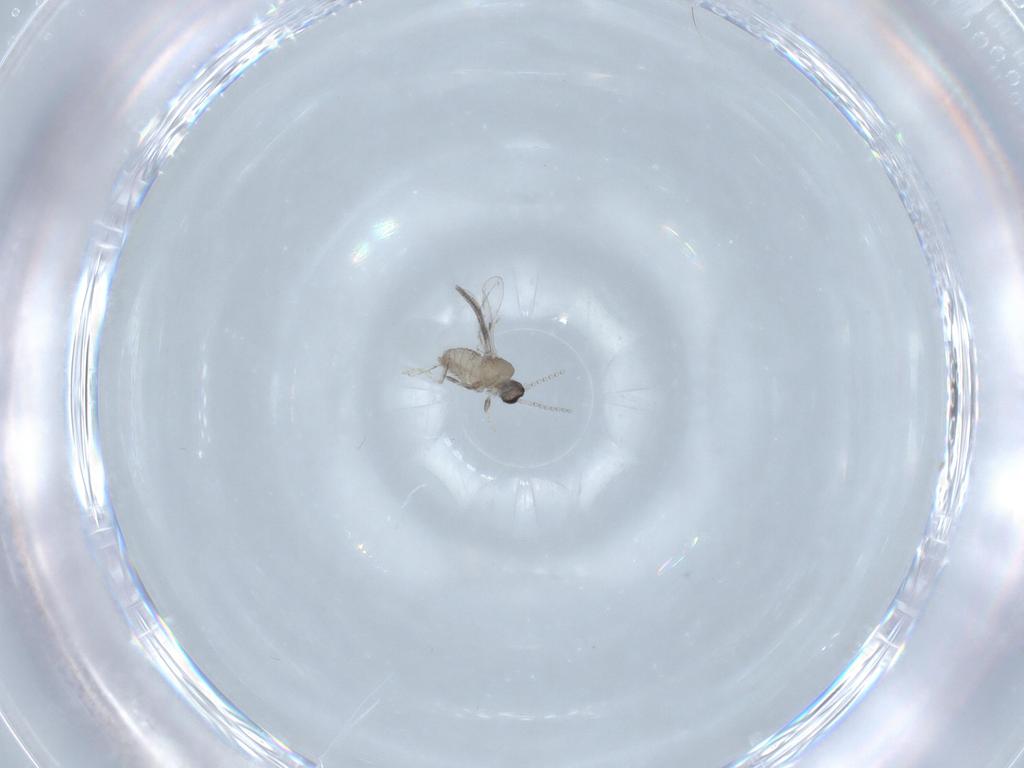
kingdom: Animalia
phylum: Arthropoda
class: Insecta
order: Diptera
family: Cecidomyiidae
